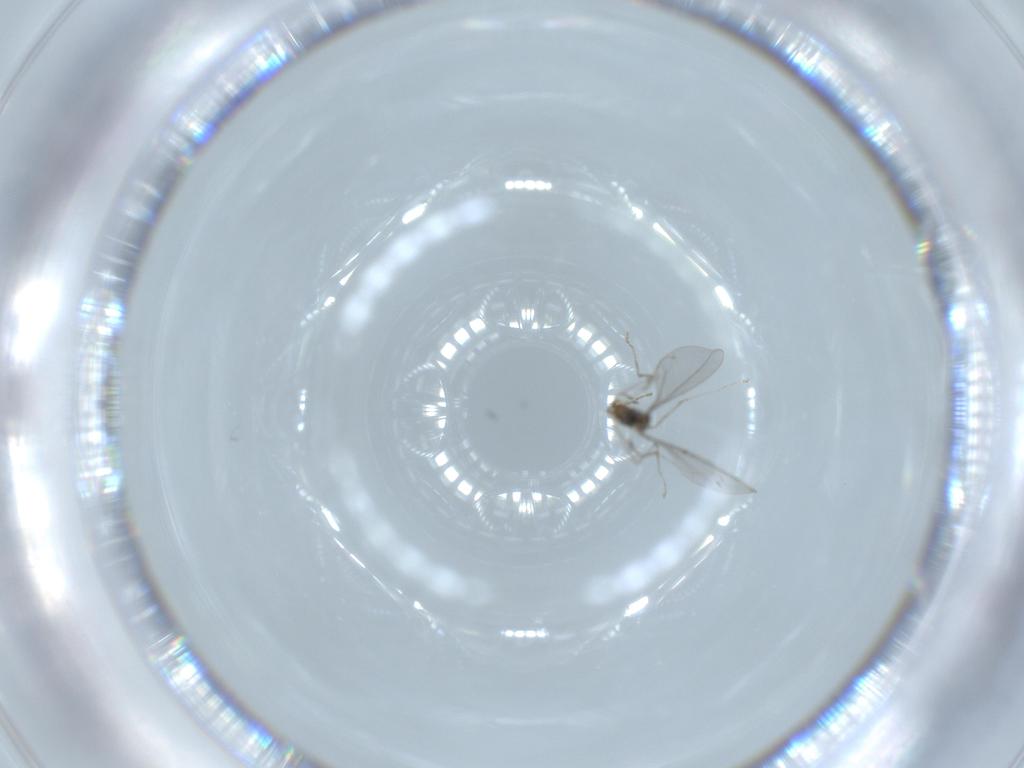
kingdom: Animalia
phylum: Arthropoda
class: Insecta
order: Diptera
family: Cecidomyiidae
